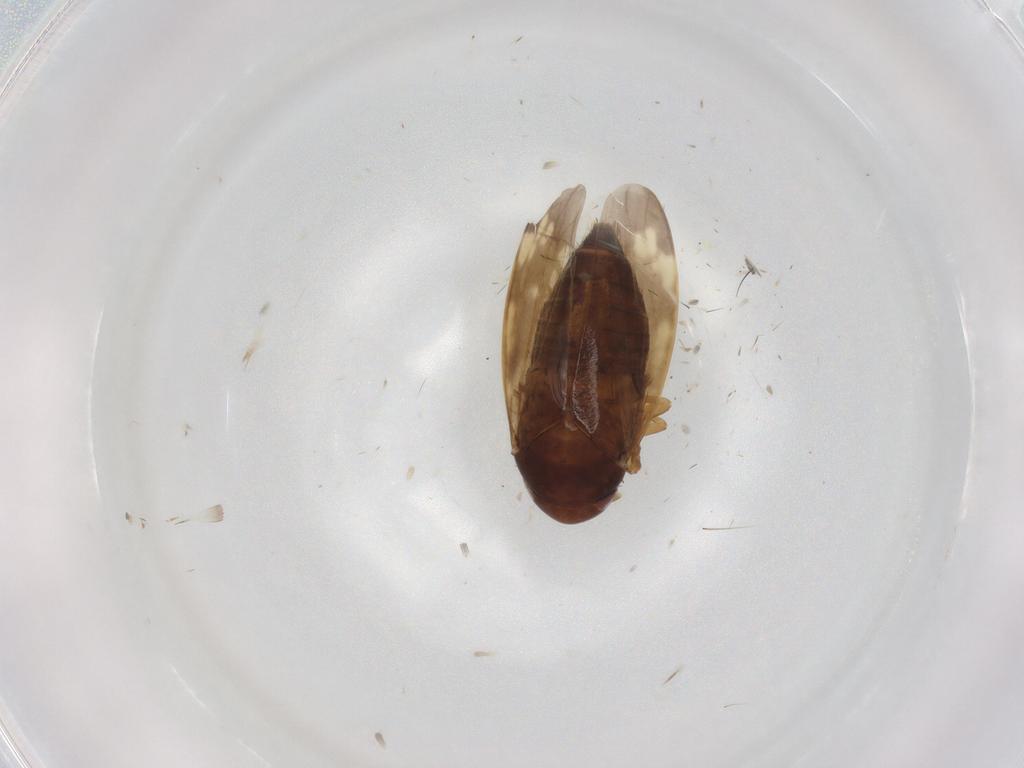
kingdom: Animalia
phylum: Arthropoda
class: Insecta
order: Hemiptera
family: Cicadellidae
